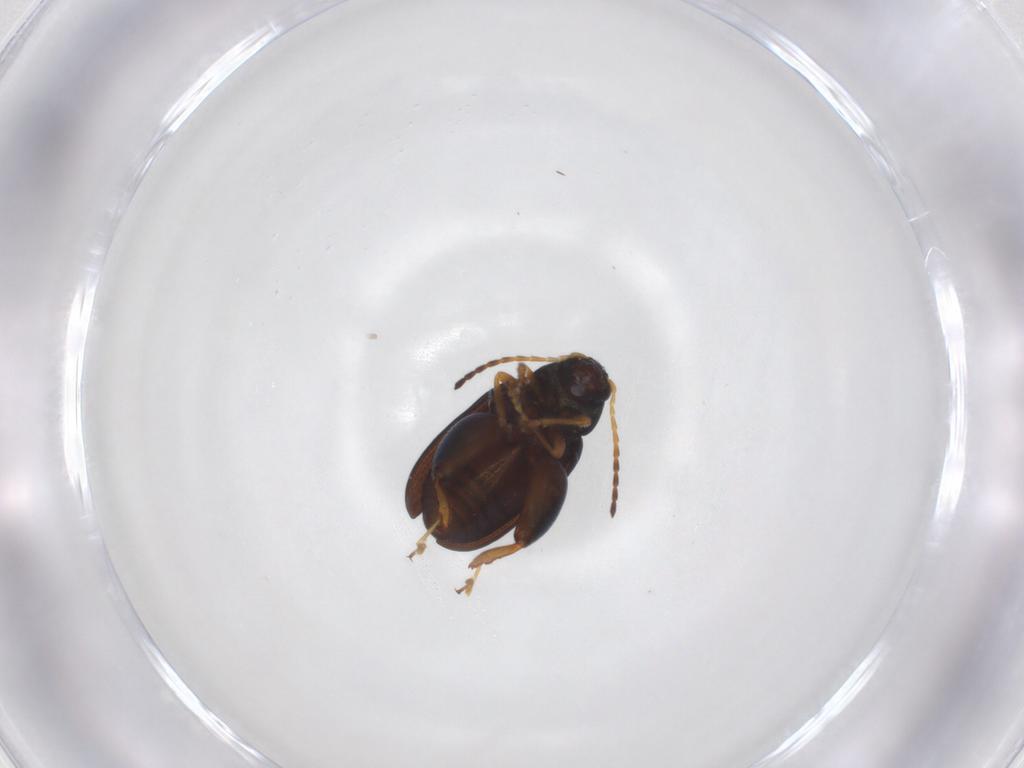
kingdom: Animalia
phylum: Arthropoda
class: Insecta
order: Coleoptera
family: Chrysomelidae
